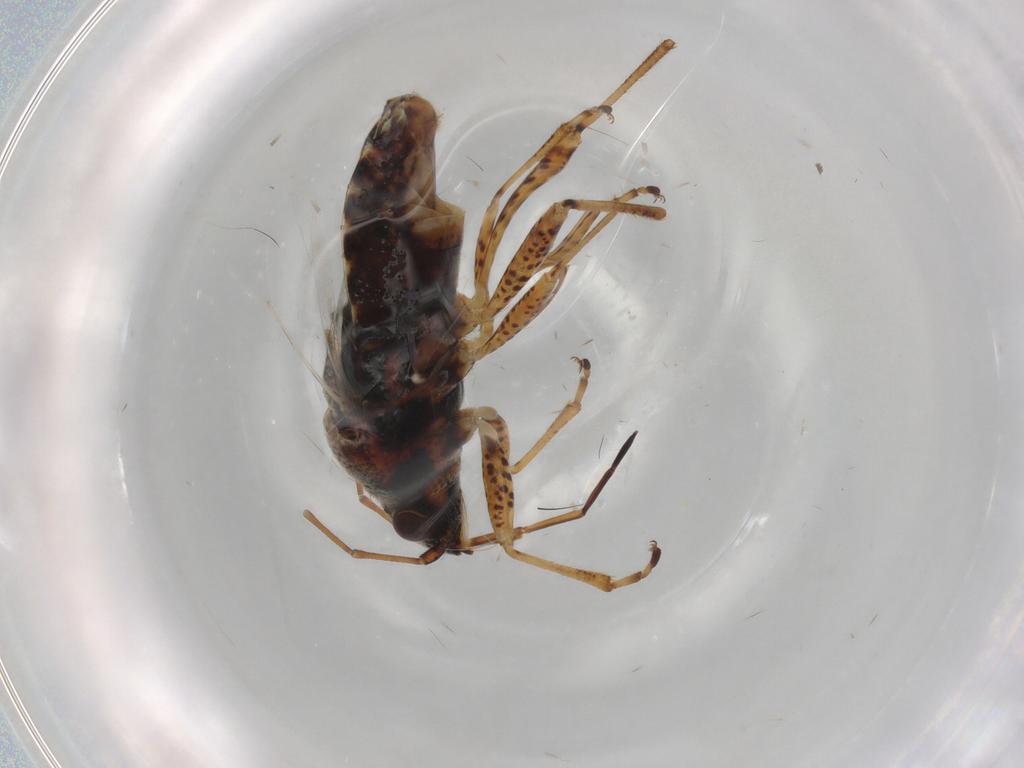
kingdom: Animalia
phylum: Arthropoda
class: Insecta
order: Hemiptera
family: Cicadellidae
